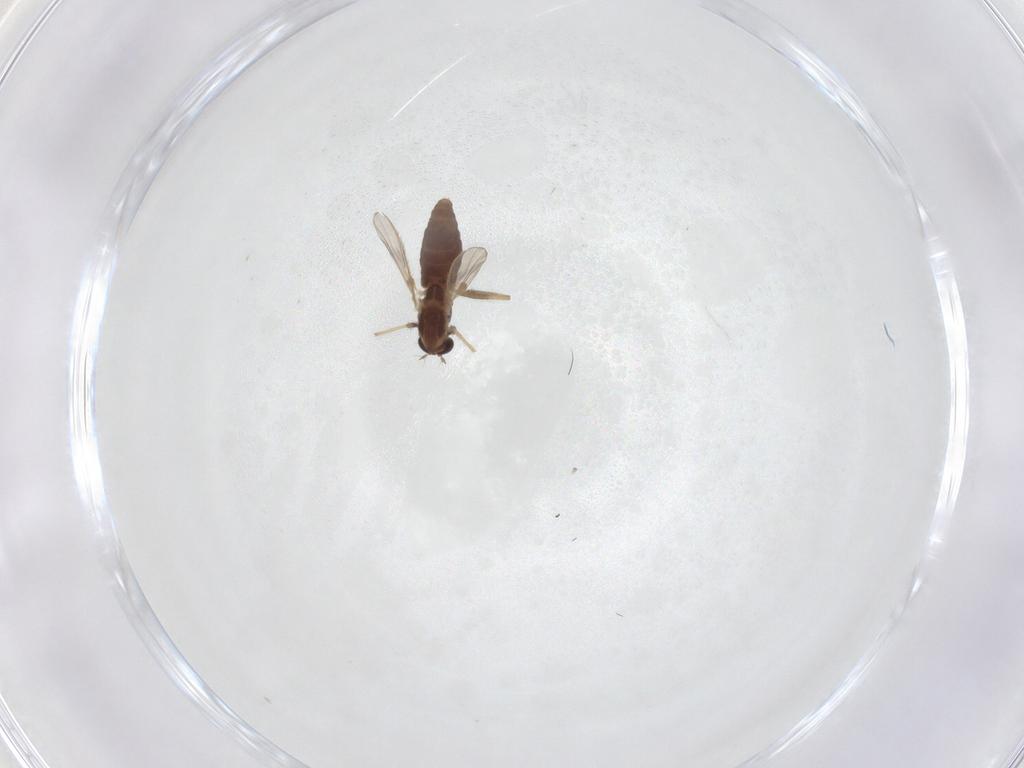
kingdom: Animalia
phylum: Arthropoda
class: Insecta
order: Diptera
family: Chironomidae
